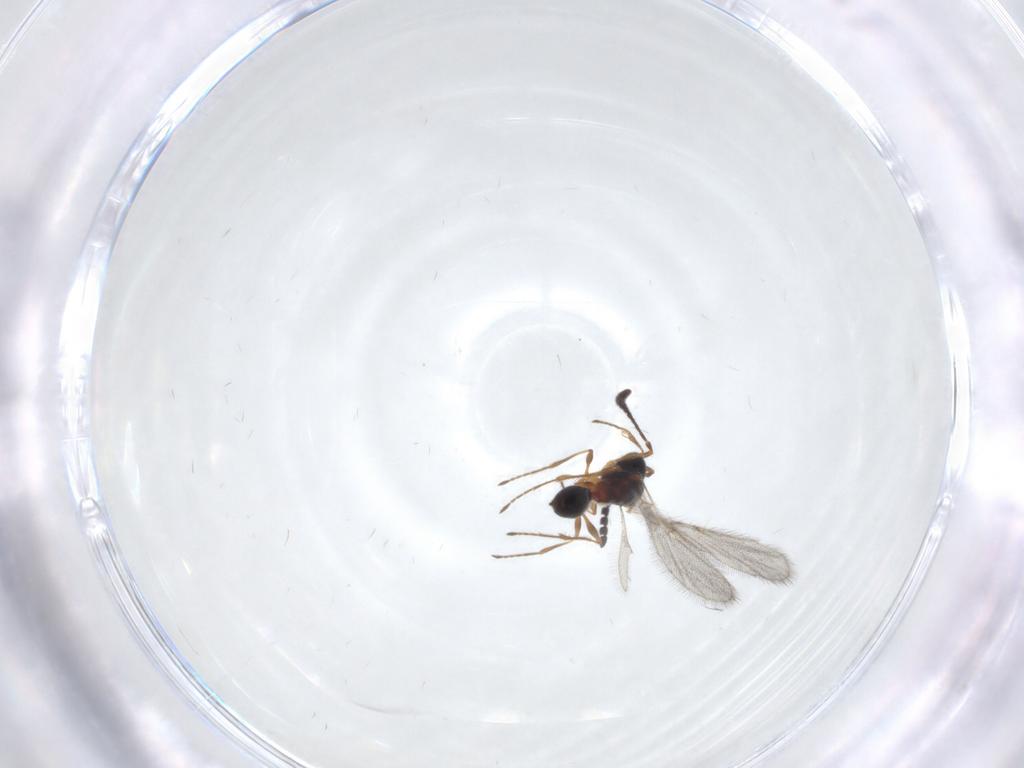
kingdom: Animalia
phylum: Arthropoda
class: Insecta
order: Hymenoptera
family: Diapriidae
